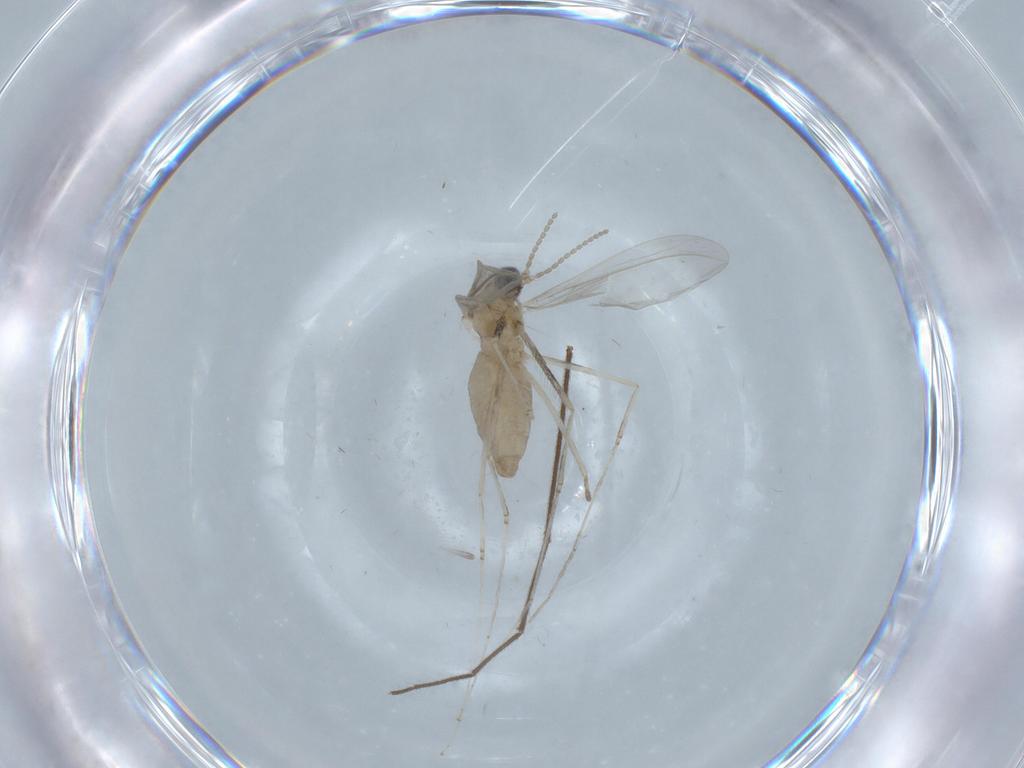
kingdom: Animalia
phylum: Arthropoda
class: Insecta
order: Diptera
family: Cecidomyiidae
